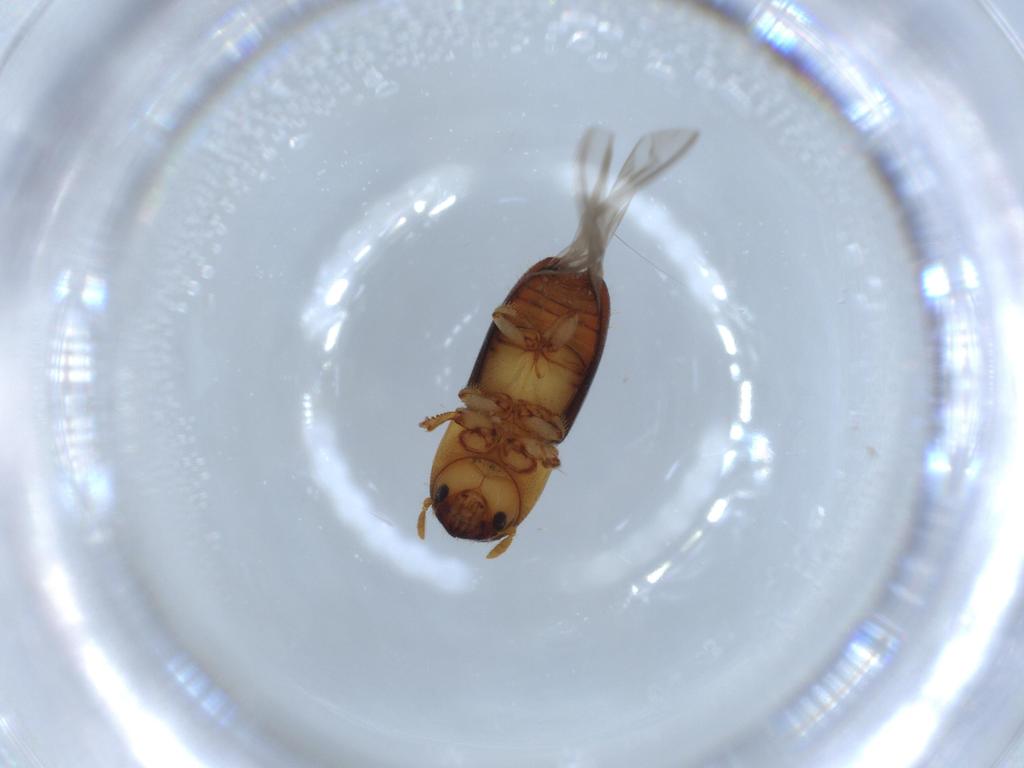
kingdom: Animalia
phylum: Arthropoda
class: Insecta
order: Coleoptera
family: Curculionidae
